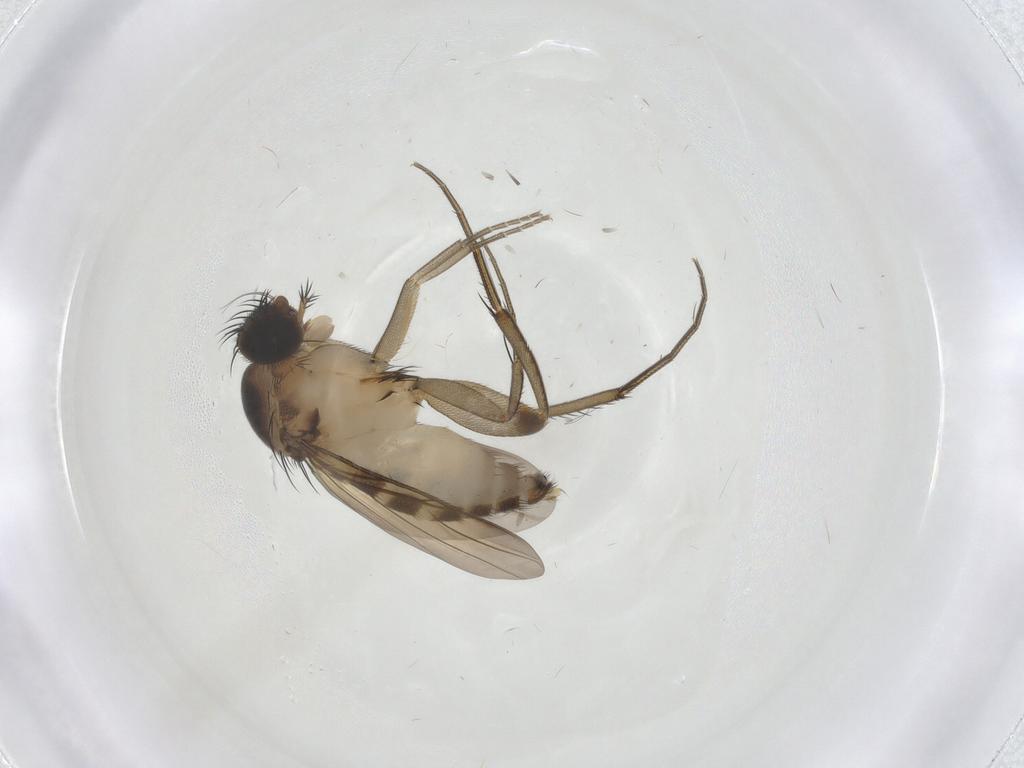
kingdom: Animalia
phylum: Arthropoda
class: Insecta
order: Diptera
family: Phoridae
